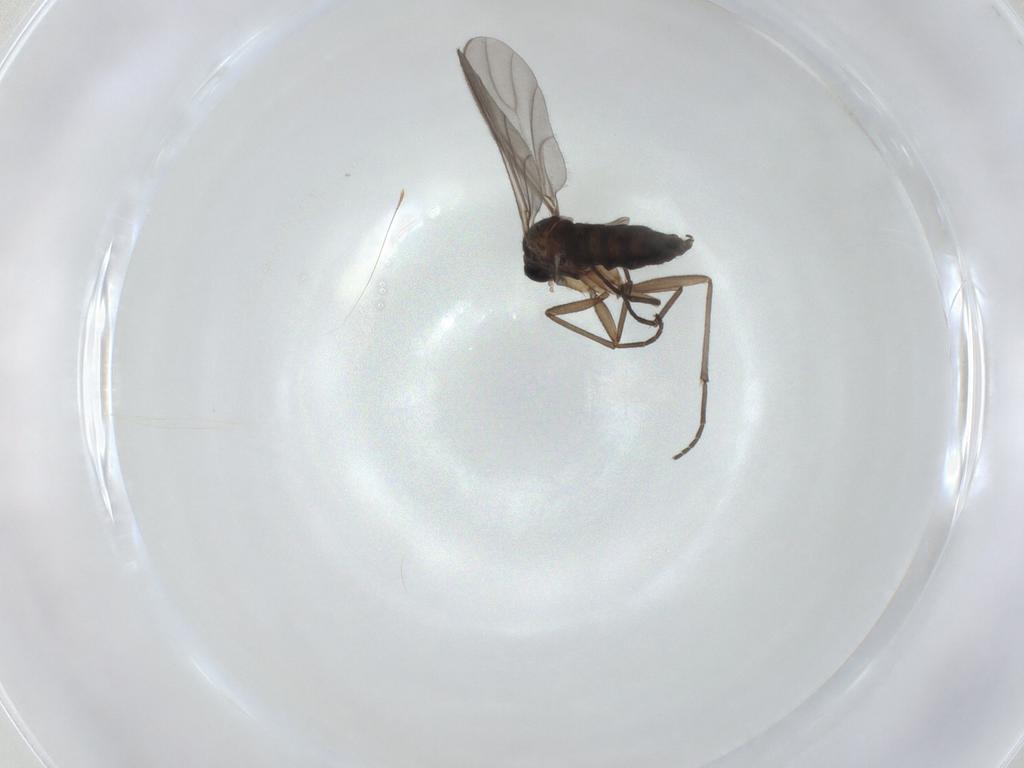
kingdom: Animalia
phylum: Arthropoda
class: Insecta
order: Diptera
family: Sciaridae
